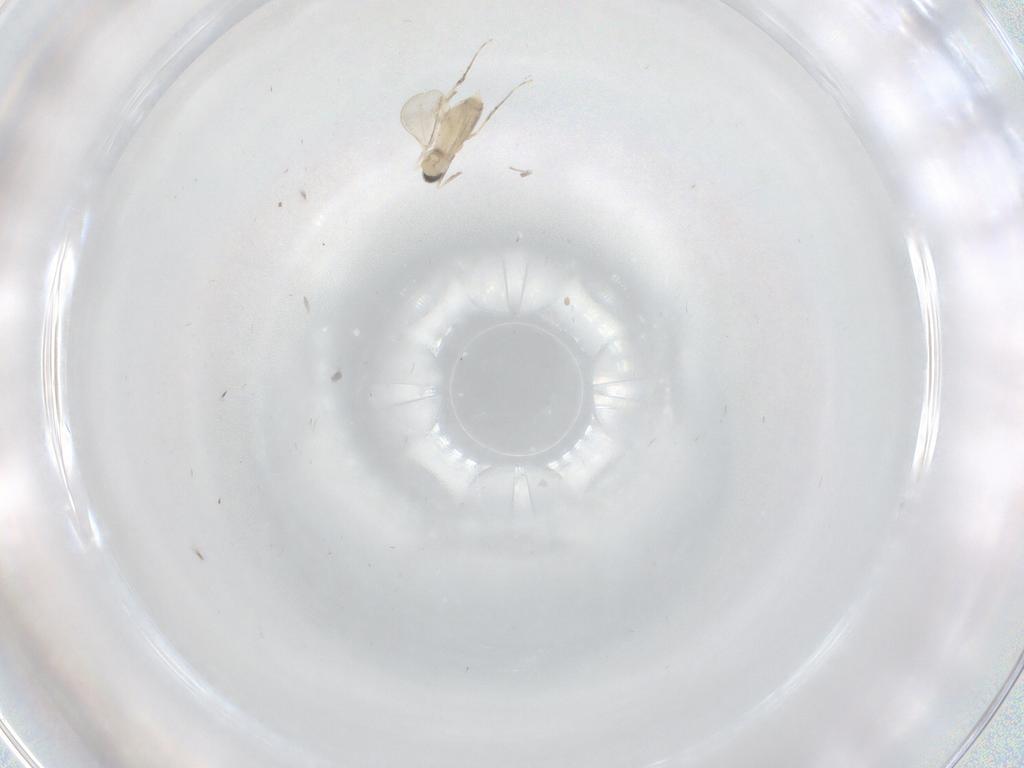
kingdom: Animalia
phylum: Arthropoda
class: Insecta
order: Diptera
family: Cecidomyiidae
